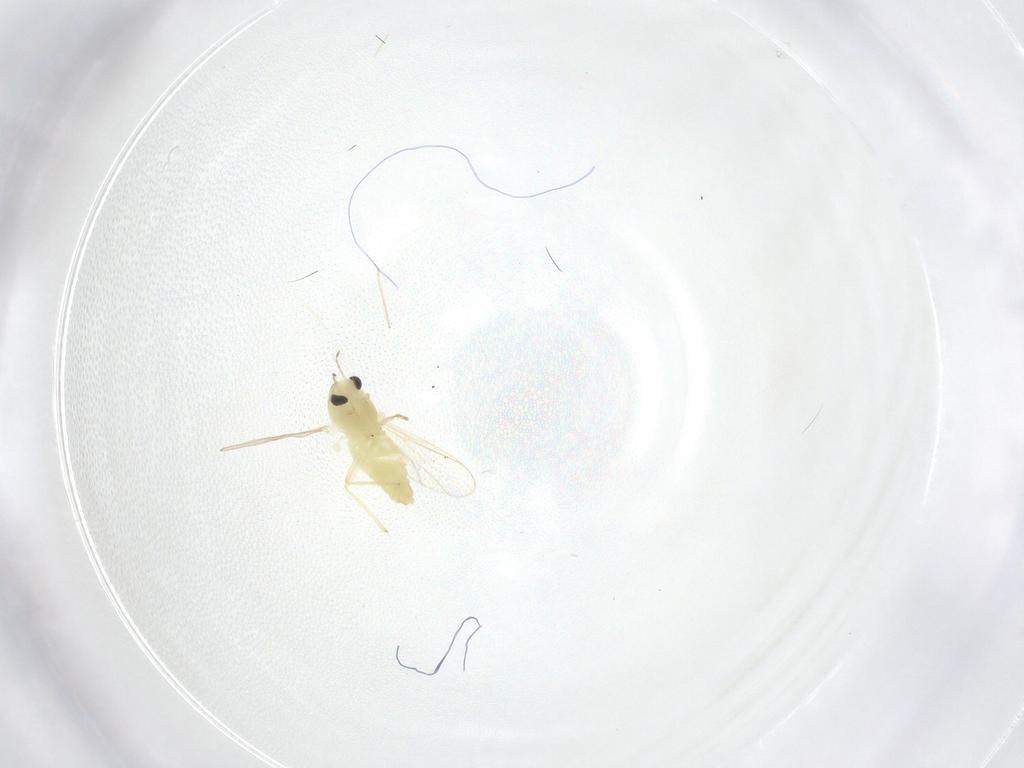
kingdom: Animalia
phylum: Arthropoda
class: Insecta
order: Diptera
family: Chironomidae
